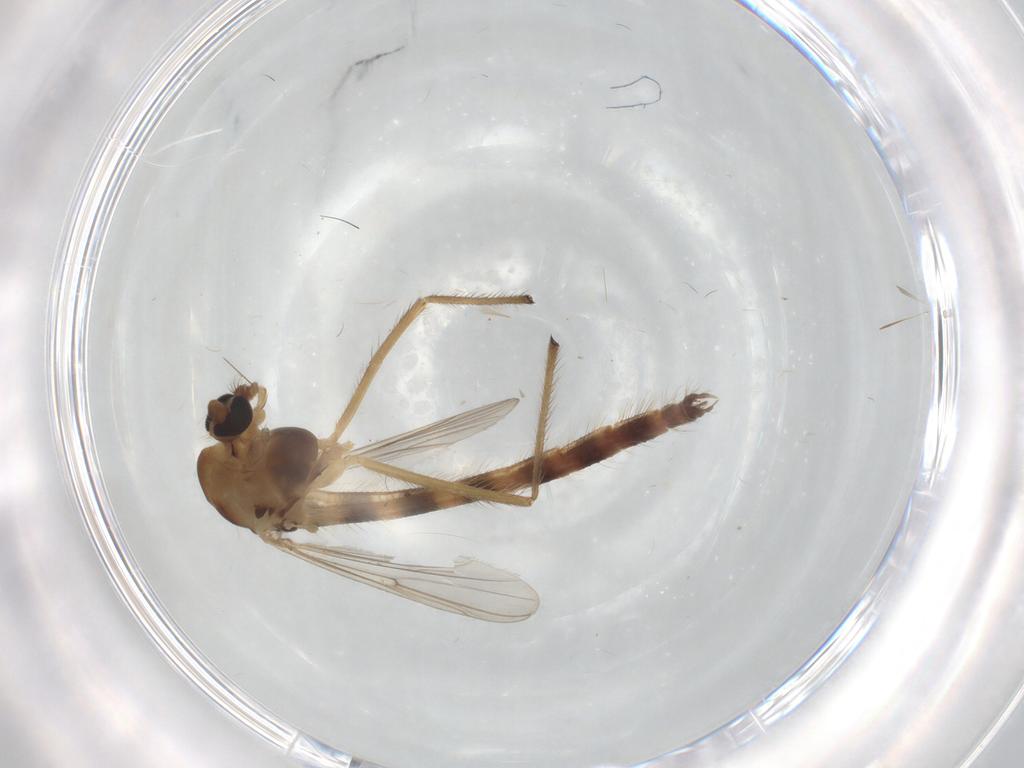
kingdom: Animalia
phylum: Arthropoda
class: Insecta
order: Diptera
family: Chironomidae
